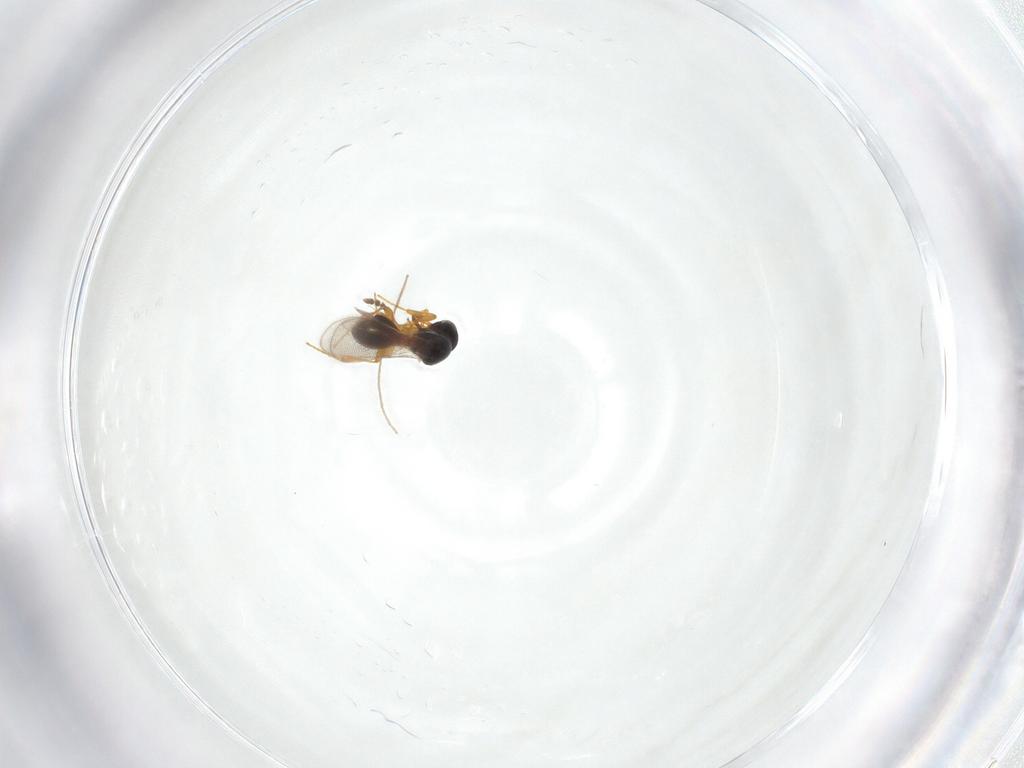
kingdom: Animalia
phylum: Arthropoda
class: Insecta
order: Hymenoptera
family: Platygastridae
